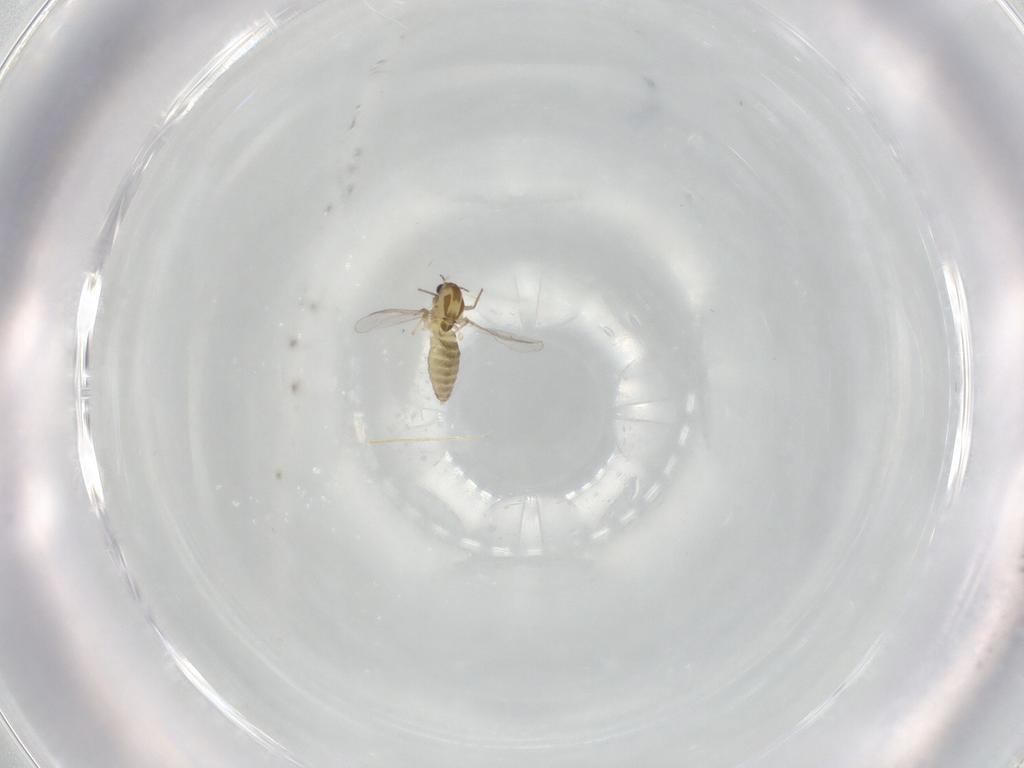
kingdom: Animalia
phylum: Arthropoda
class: Insecta
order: Diptera
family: Chironomidae
